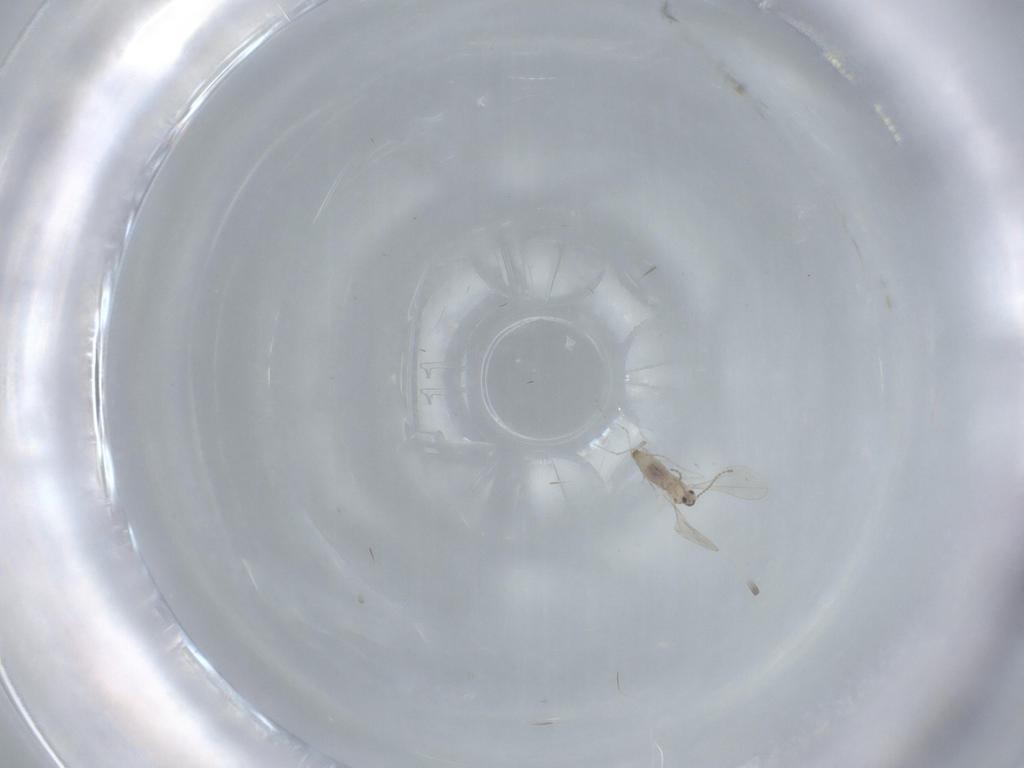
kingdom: Animalia
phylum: Arthropoda
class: Insecta
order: Diptera
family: Cecidomyiidae
